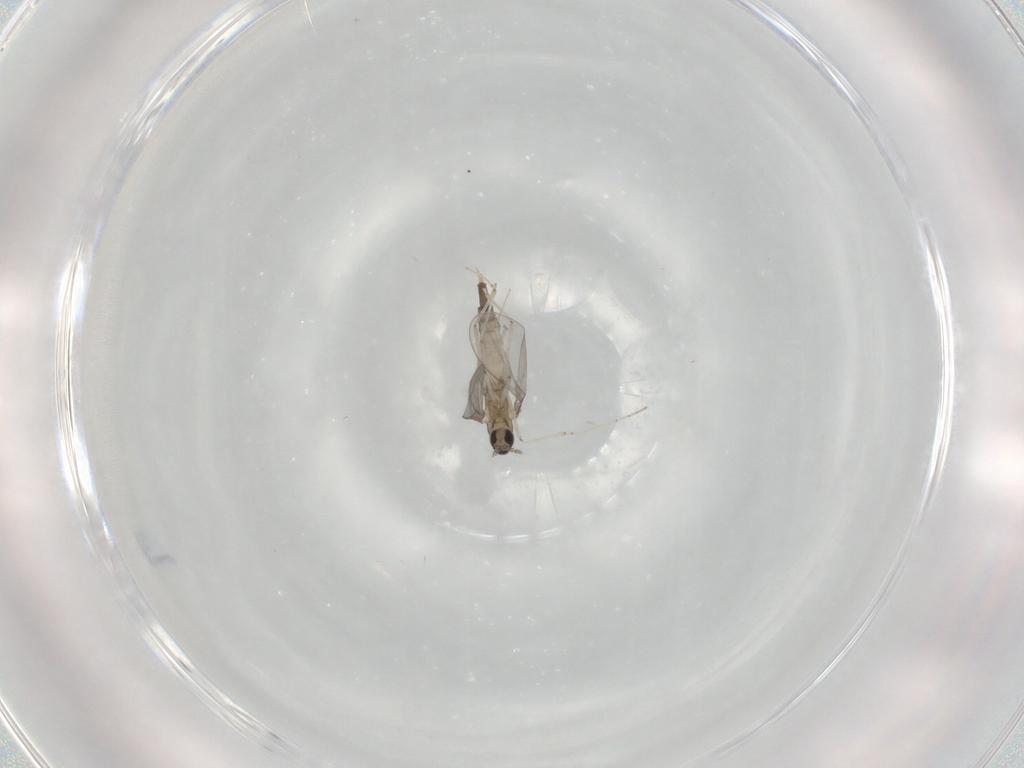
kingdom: Animalia
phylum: Arthropoda
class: Insecta
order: Diptera
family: Cecidomyiidae
